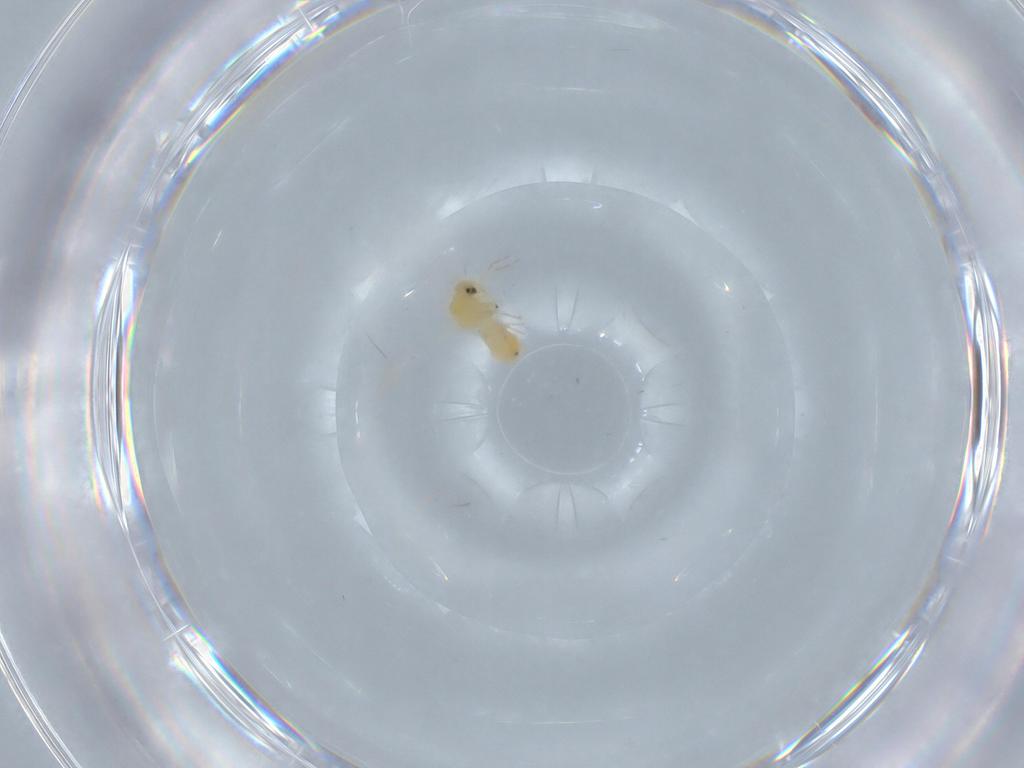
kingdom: Animalia
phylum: Arthropoda
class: Insecta
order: Hemiptera
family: Aleyrodidae
